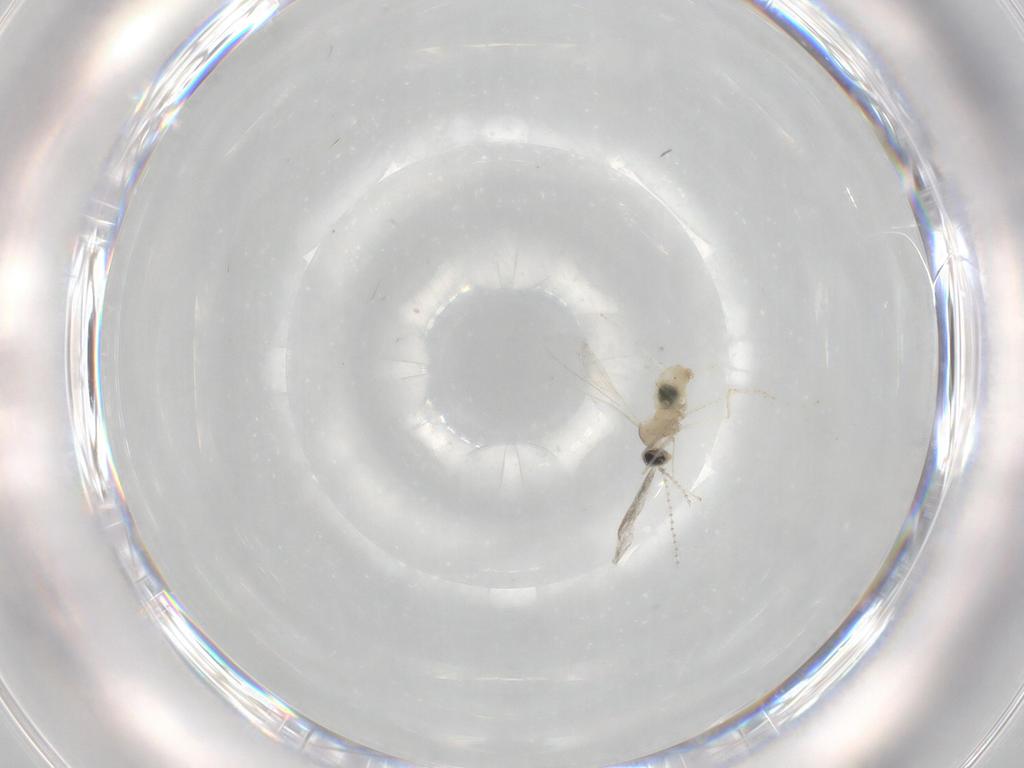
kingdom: Animalia
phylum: Arthropoda
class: Insecta
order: Diptera
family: Cecidomyiidae
